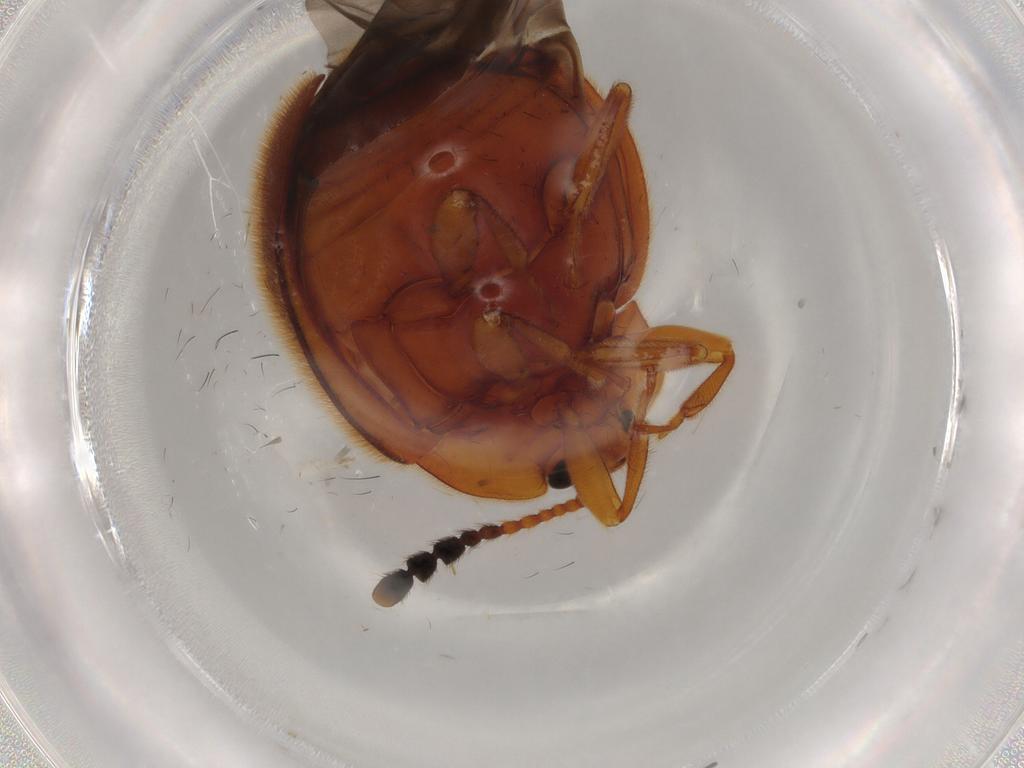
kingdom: Animalia
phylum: Arthropoda
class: Insecta
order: Coleoptera
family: Endomychidae
